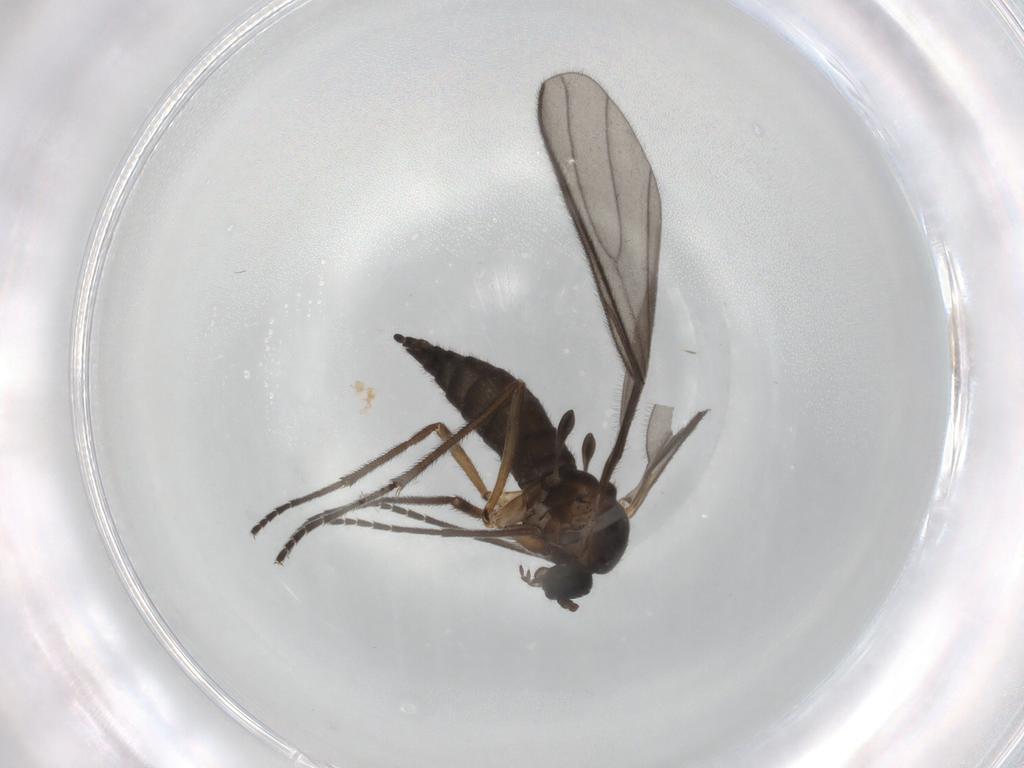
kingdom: Animalia
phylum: Arthropoda
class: Insecta
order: Diptera
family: Sciaridae
